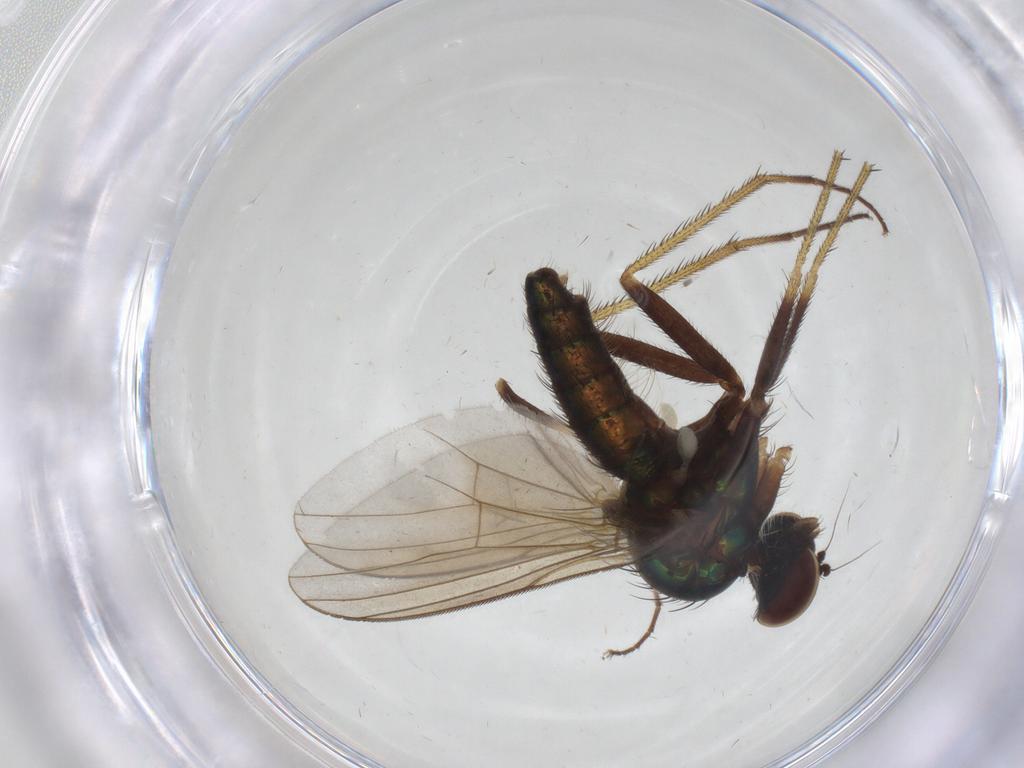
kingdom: Animalia
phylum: Arthropoda
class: Insecta
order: Diptera
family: Dolichopodidae
